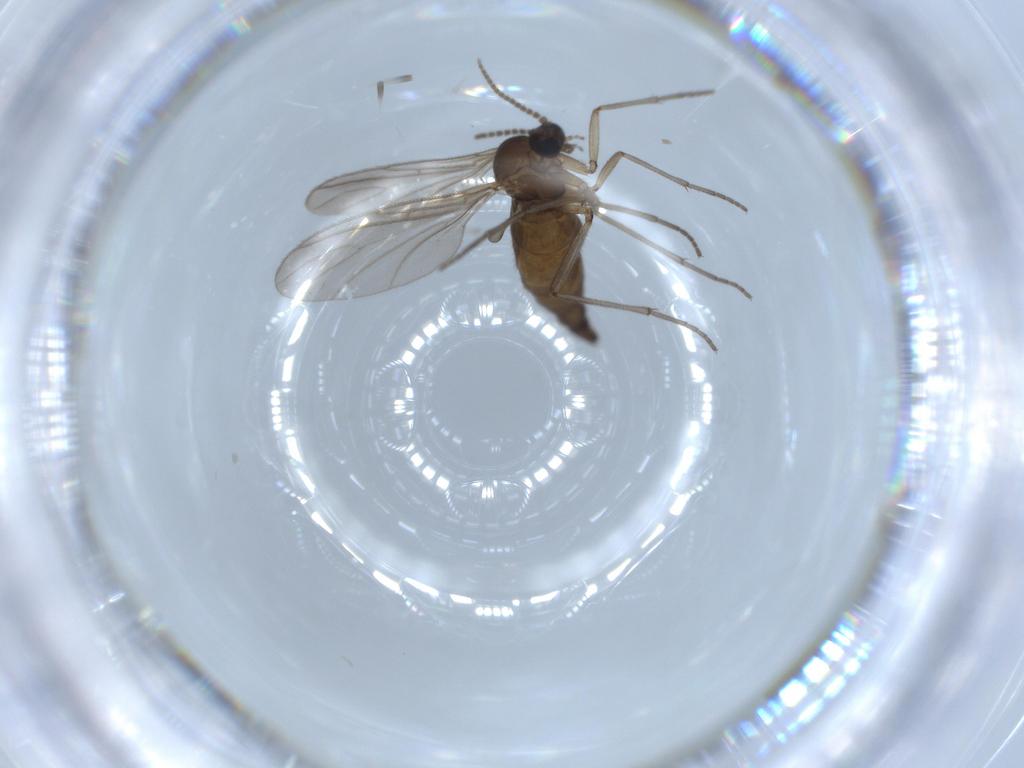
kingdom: Animalia
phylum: Arthropoda
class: Insecta
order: Diptera
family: Sciaridae
